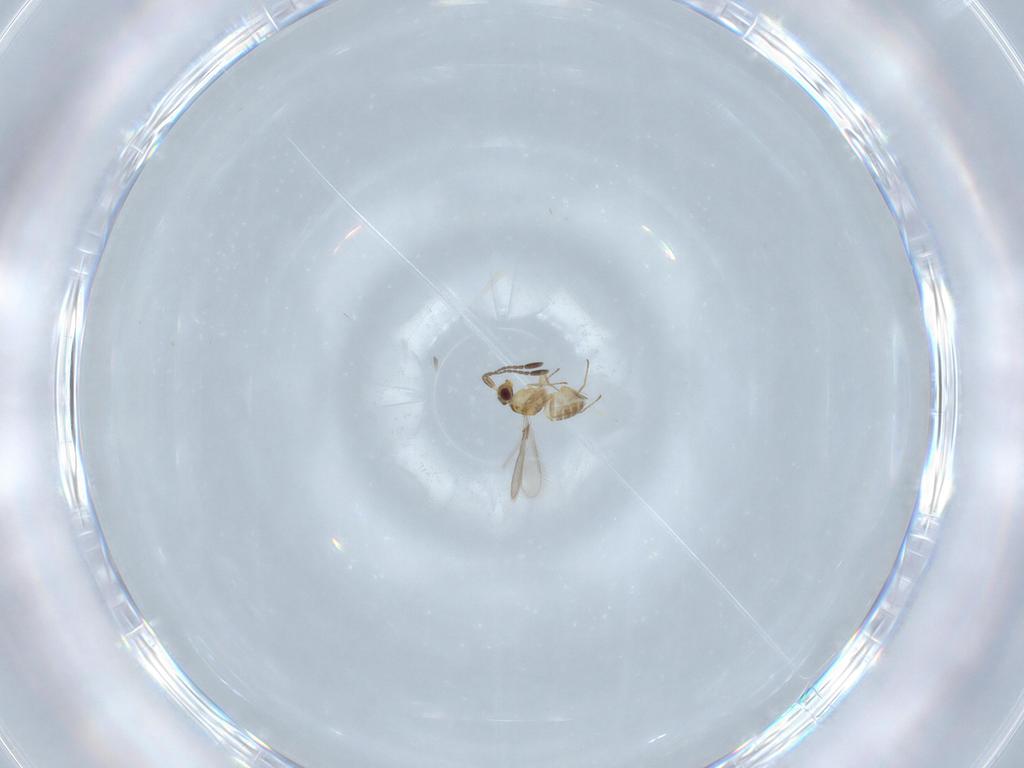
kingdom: Animalia
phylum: Arthropoda
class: Insecta
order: Hymenoptera
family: Mymaridae
